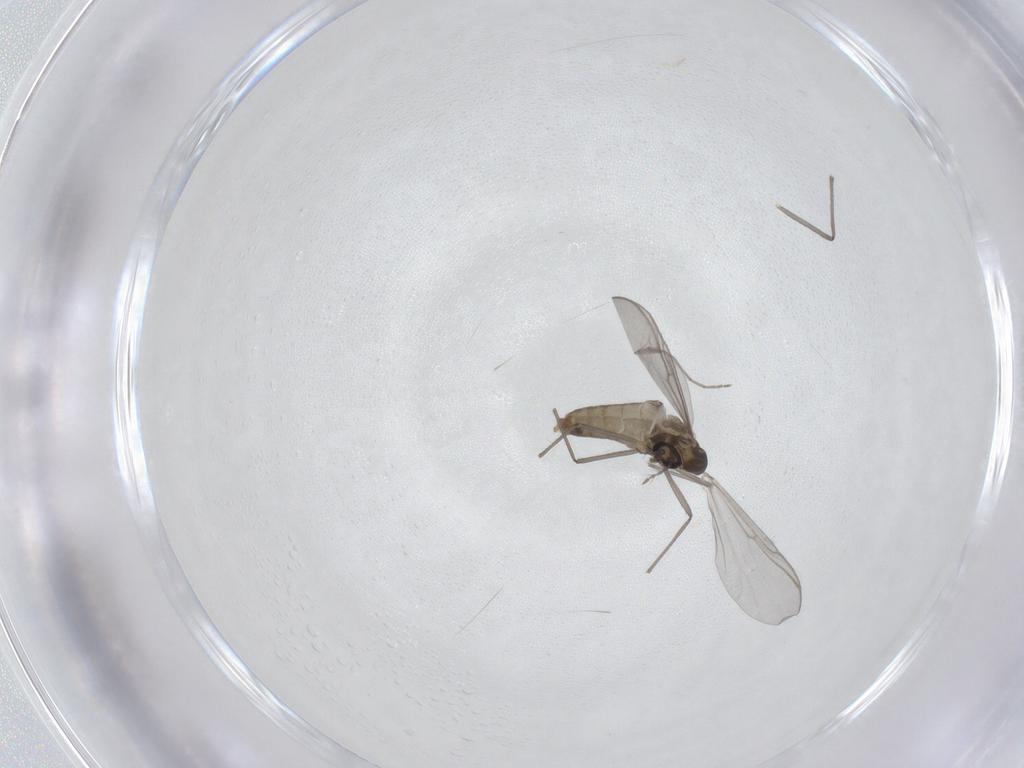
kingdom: Animalia
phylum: Arthropoda
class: Insecta
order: Diptera
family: Chironomidae
